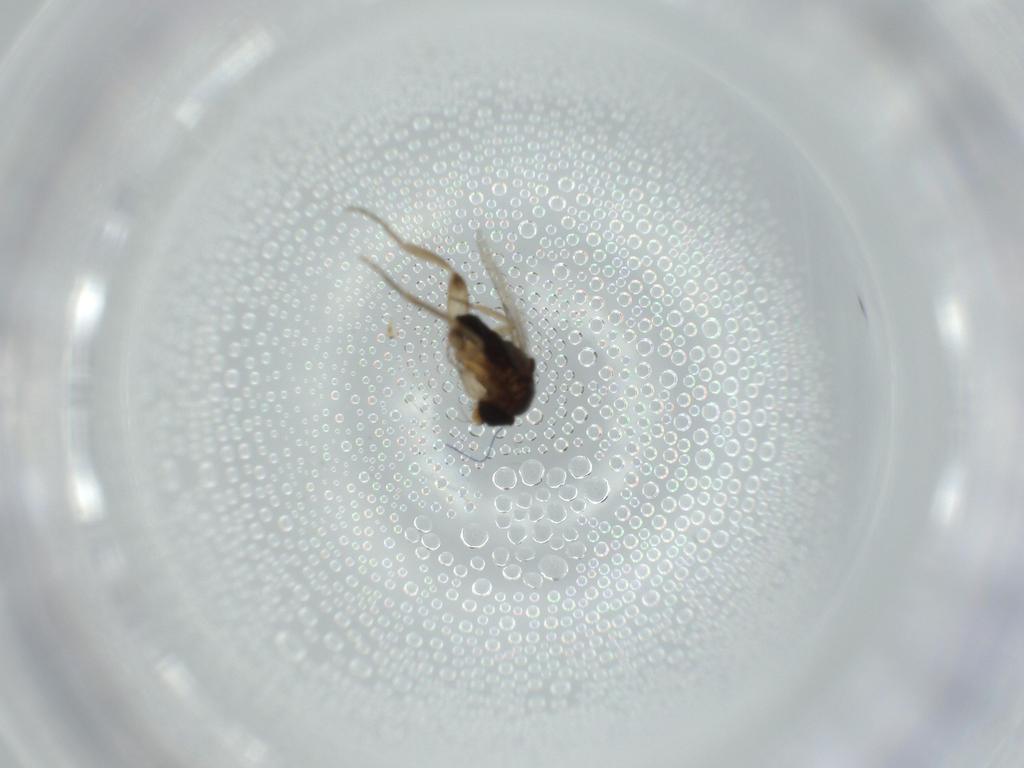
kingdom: Animalia
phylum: Arthropoda
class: Insecta
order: Diptera
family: Phoridae
